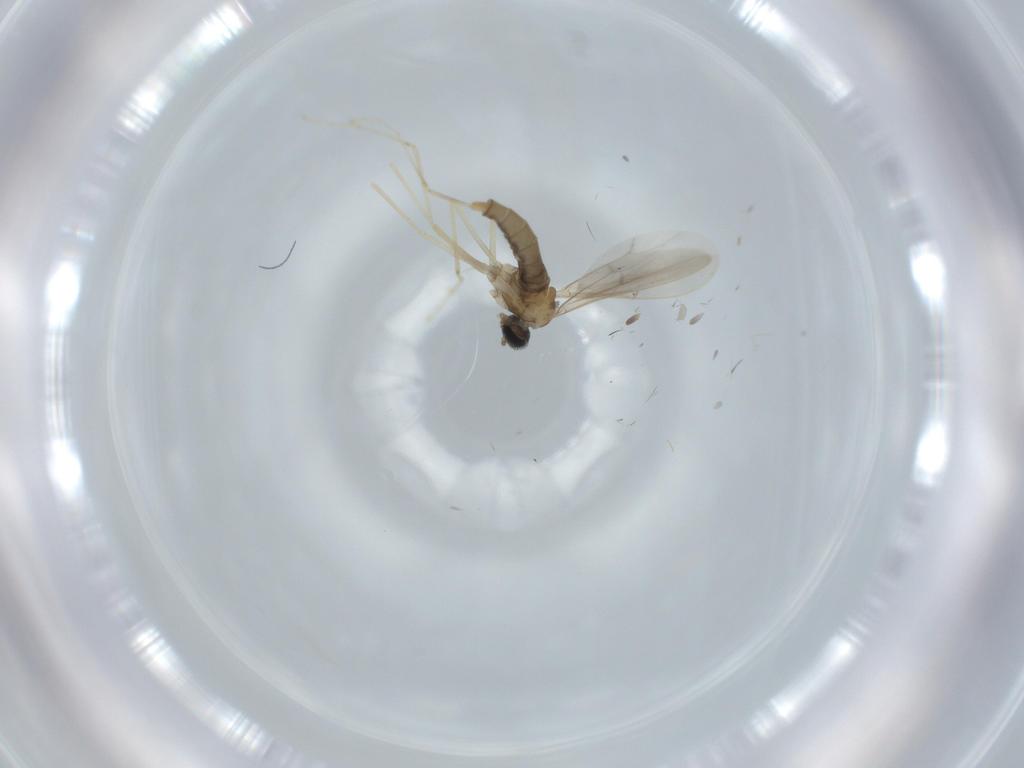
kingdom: Animalia
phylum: Arthropoda
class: Insecta
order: Diptera
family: Cecidomyiidae
